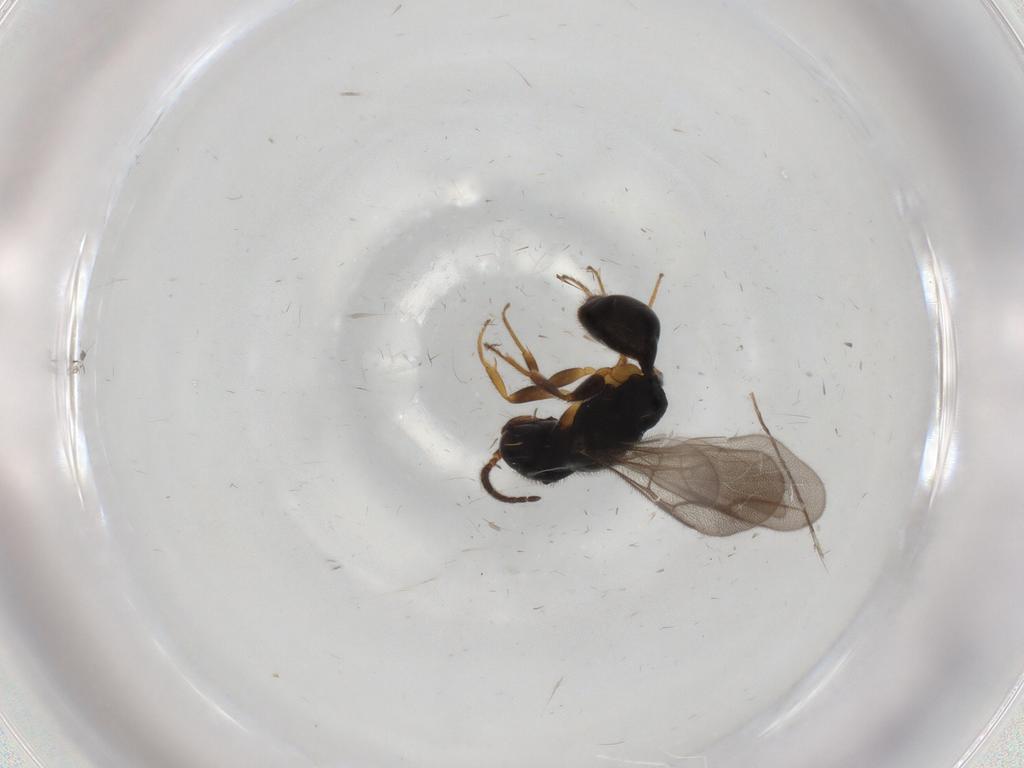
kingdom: Animalia
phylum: Arthropoda
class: Insecta
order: Hymenoptera
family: Bethylidae
